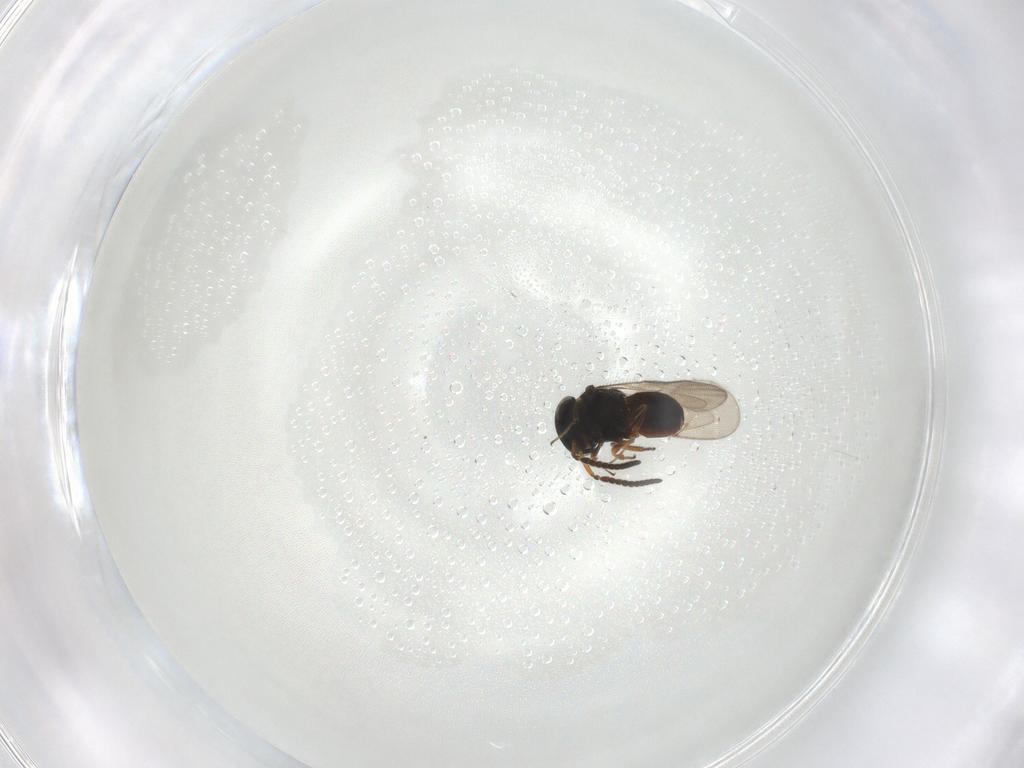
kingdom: Animalia
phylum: Arthropoda
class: Insecta
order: Hymenoptera
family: Scelionidae
